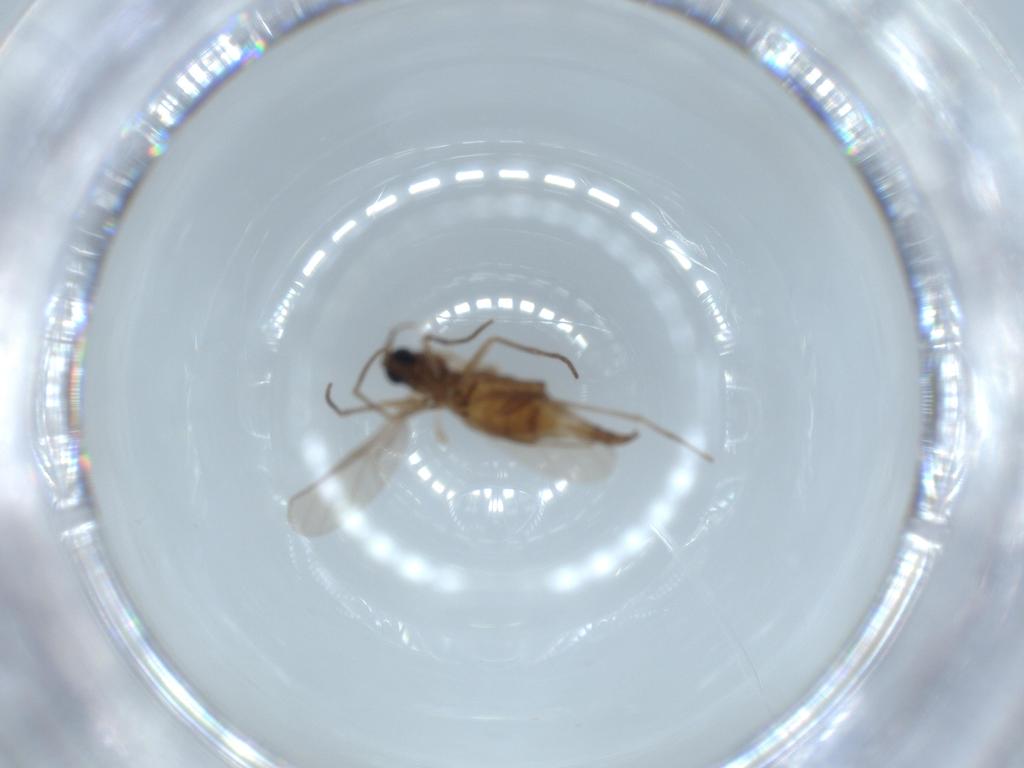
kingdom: Animalia
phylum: Arthropoda
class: Insecta
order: Diptera
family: Sciaridae
